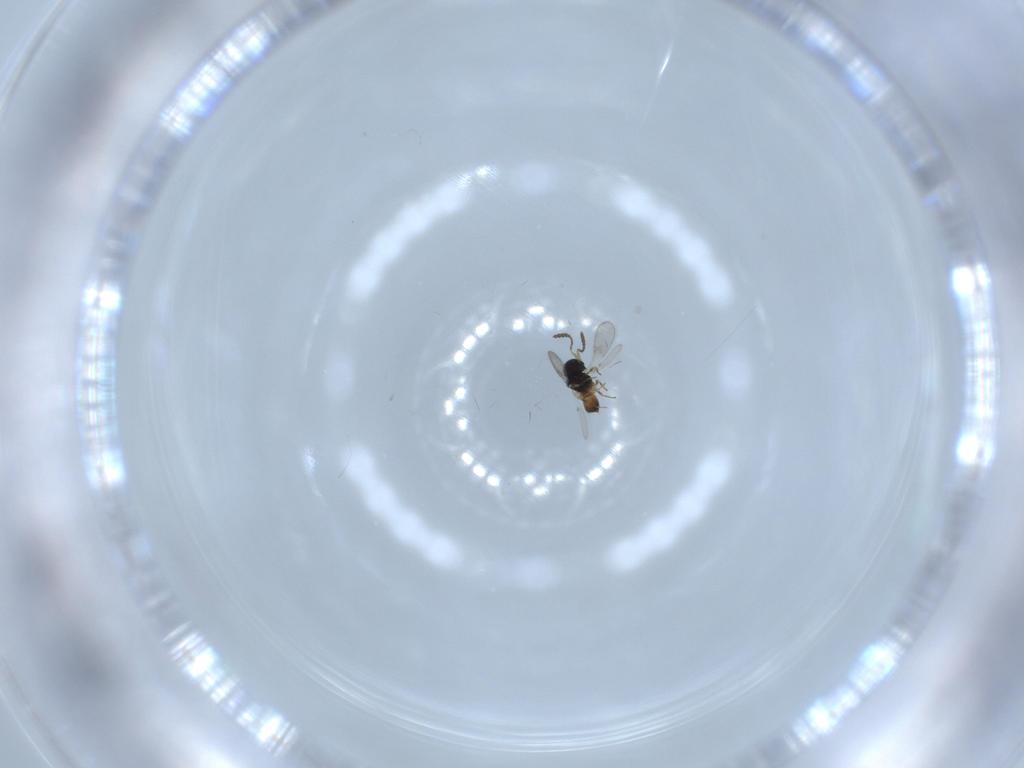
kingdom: Animalia
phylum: Arthropoda
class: Insecta
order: Hymenoptera
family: Scelionidae
